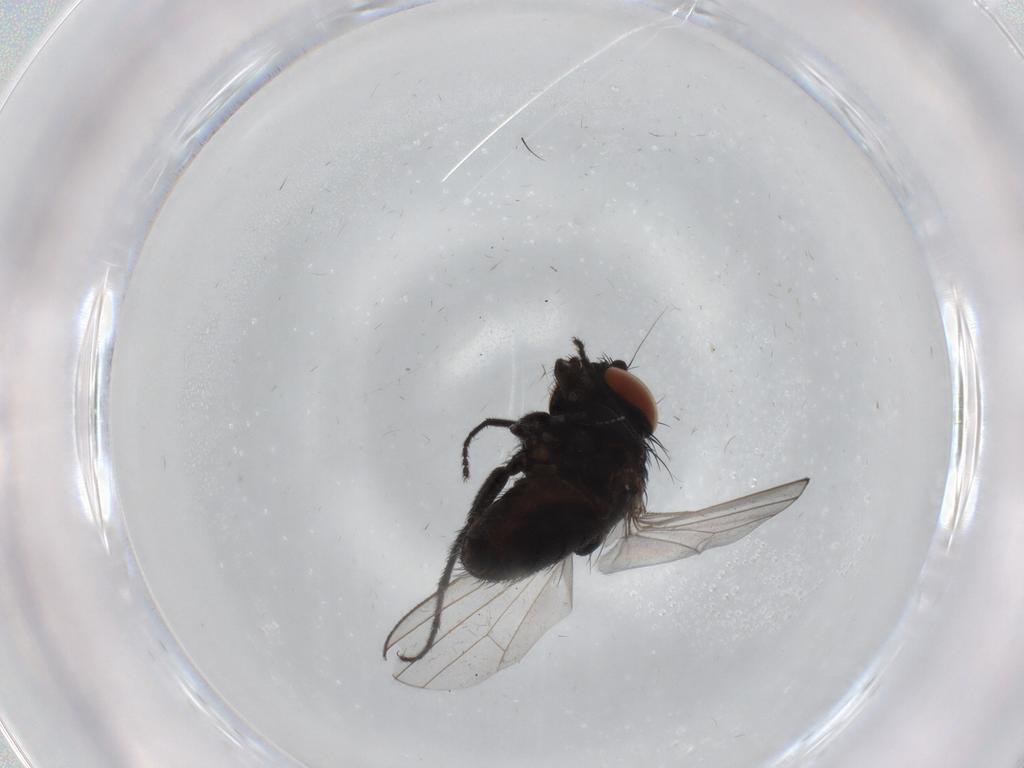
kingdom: Animalia
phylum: Arthropoda
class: Insecta
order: Diptera
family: Milichiidae
